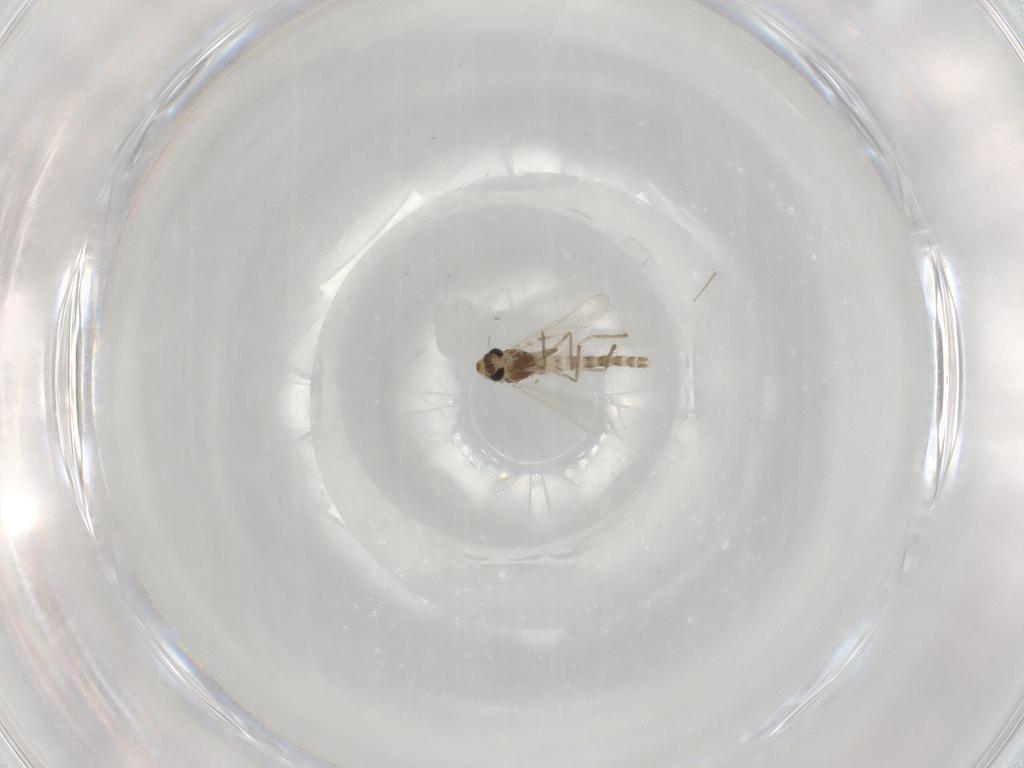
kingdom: Animalia
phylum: Arthropoda
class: Insecta
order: Diptera
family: Chironomidae
